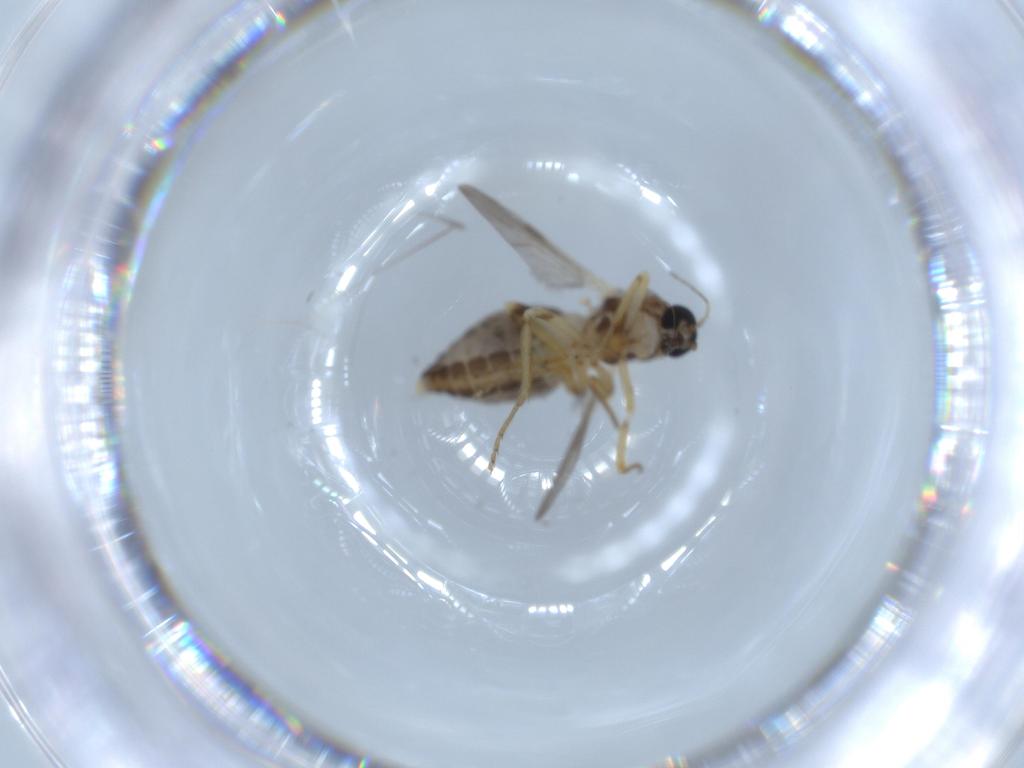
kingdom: Animalia
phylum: Arthropoda
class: Insecta
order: Diptera
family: Ceratopogonidae
